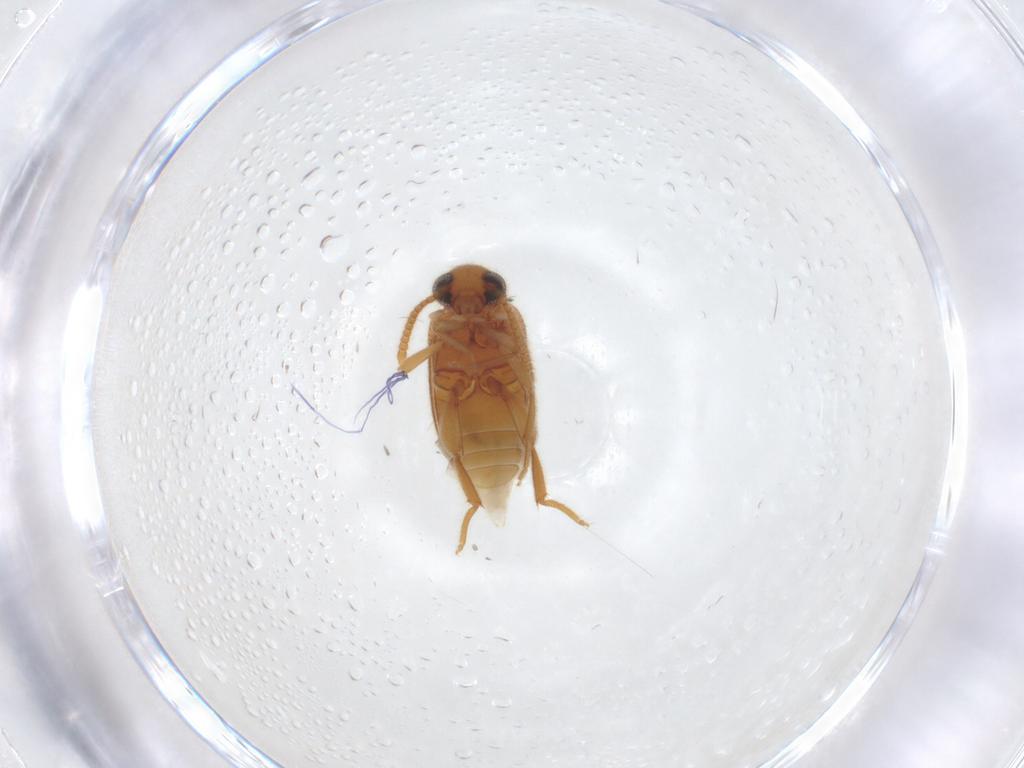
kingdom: Animalia
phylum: Arthropoda
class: Insecta
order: Coleoptera
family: Aderidae
